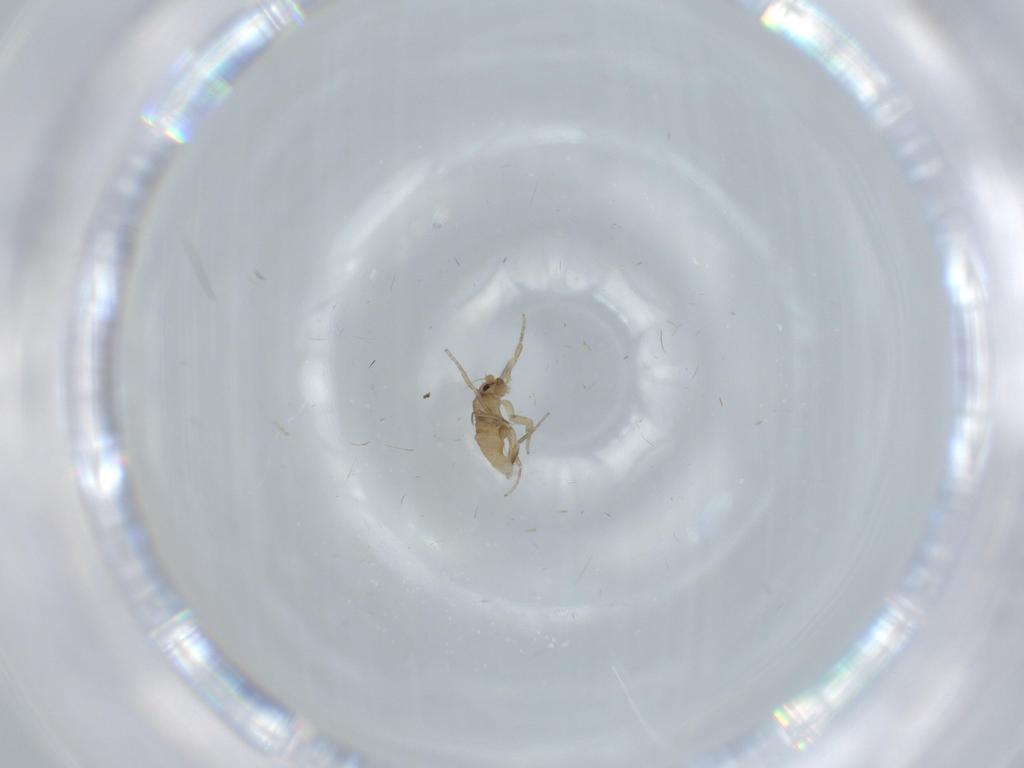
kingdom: Animalia
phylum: Arthropoda
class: Insecta
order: Diptera
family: Phoridae
